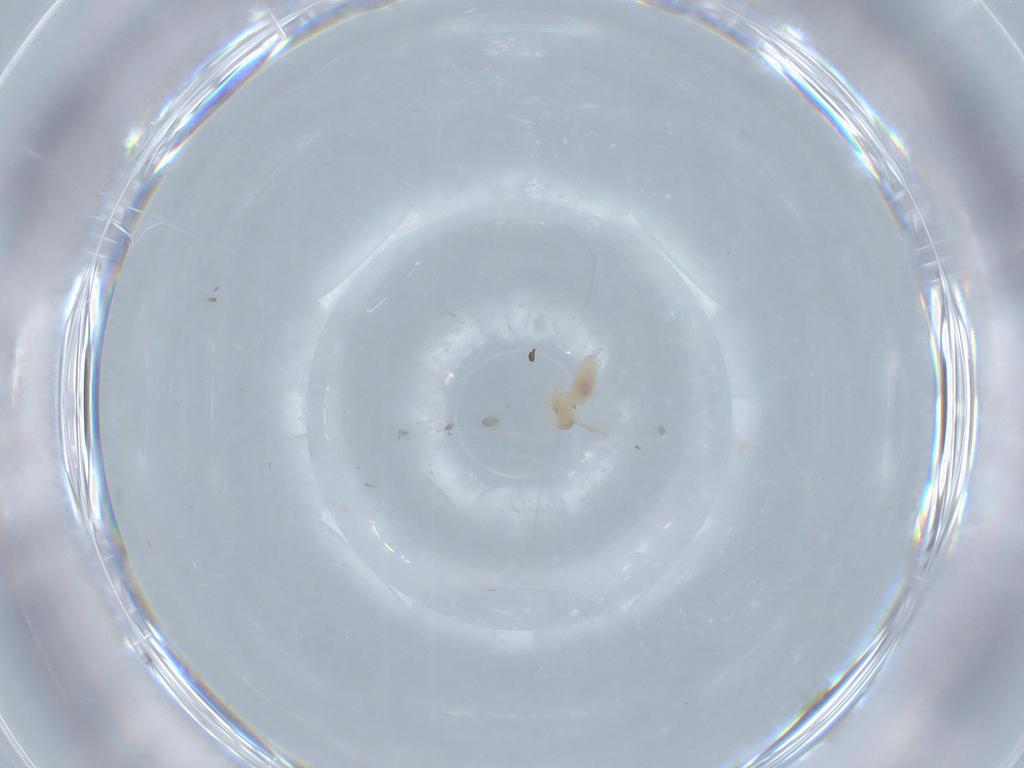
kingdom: Animalia
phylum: Arthropoda
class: Insecta
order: Diptera
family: Cecidomyiidae
